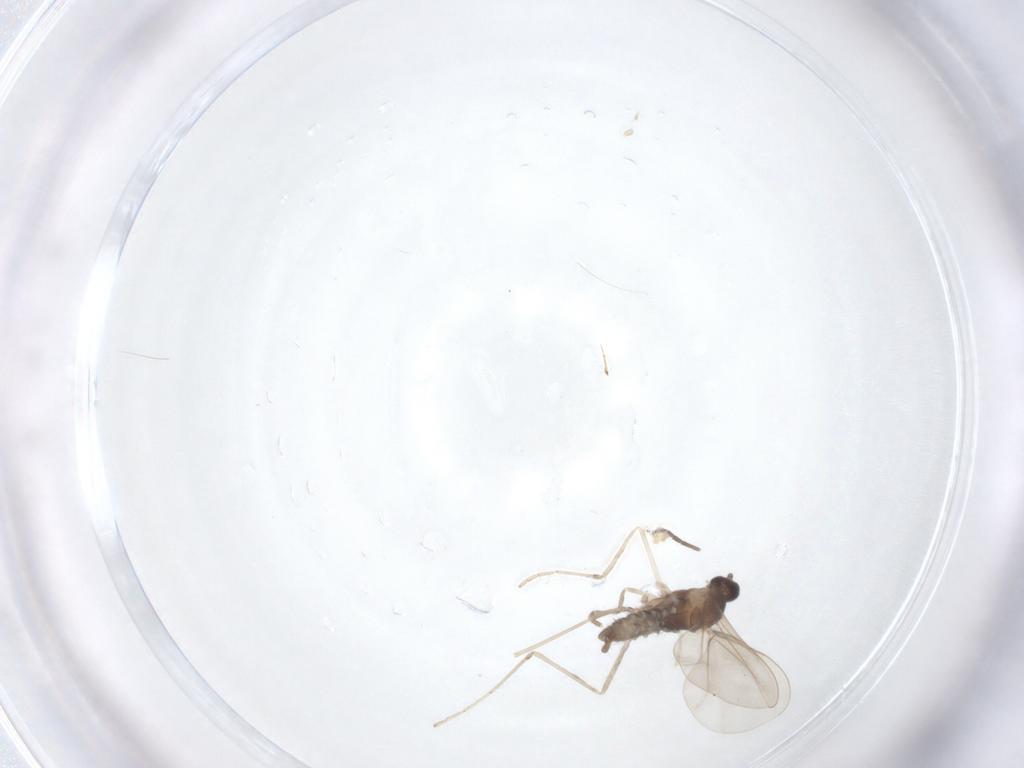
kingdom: Animalia
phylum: Arthropoda
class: Insecta
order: Diptera
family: Cecidomyiidae
